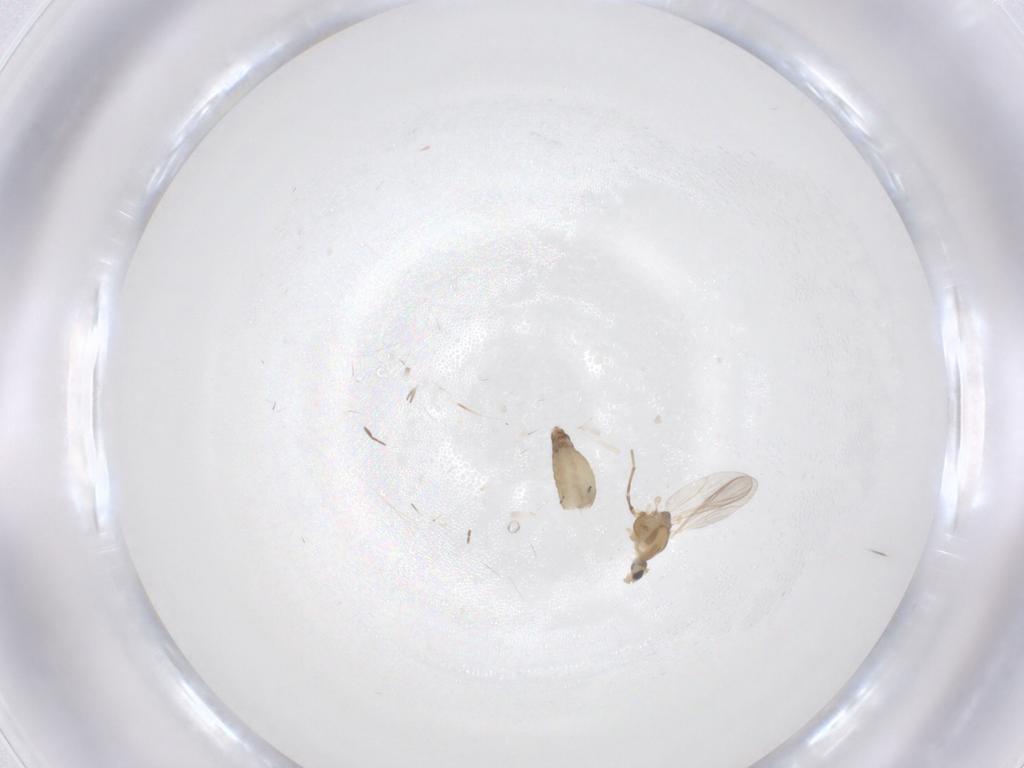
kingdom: Animalia
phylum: Arthropoda
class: Insecta
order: Diptera
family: Chironomidae
